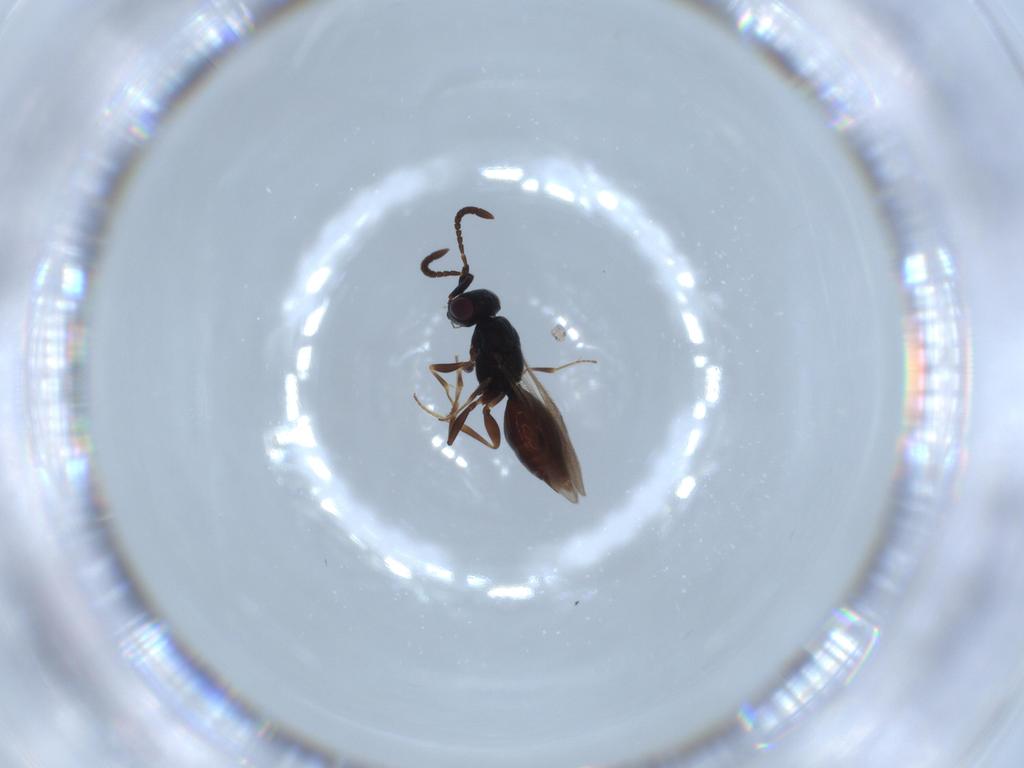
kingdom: Animalia
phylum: Arthropoda
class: Insecta
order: Hymenoptera
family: Megaspilidae
